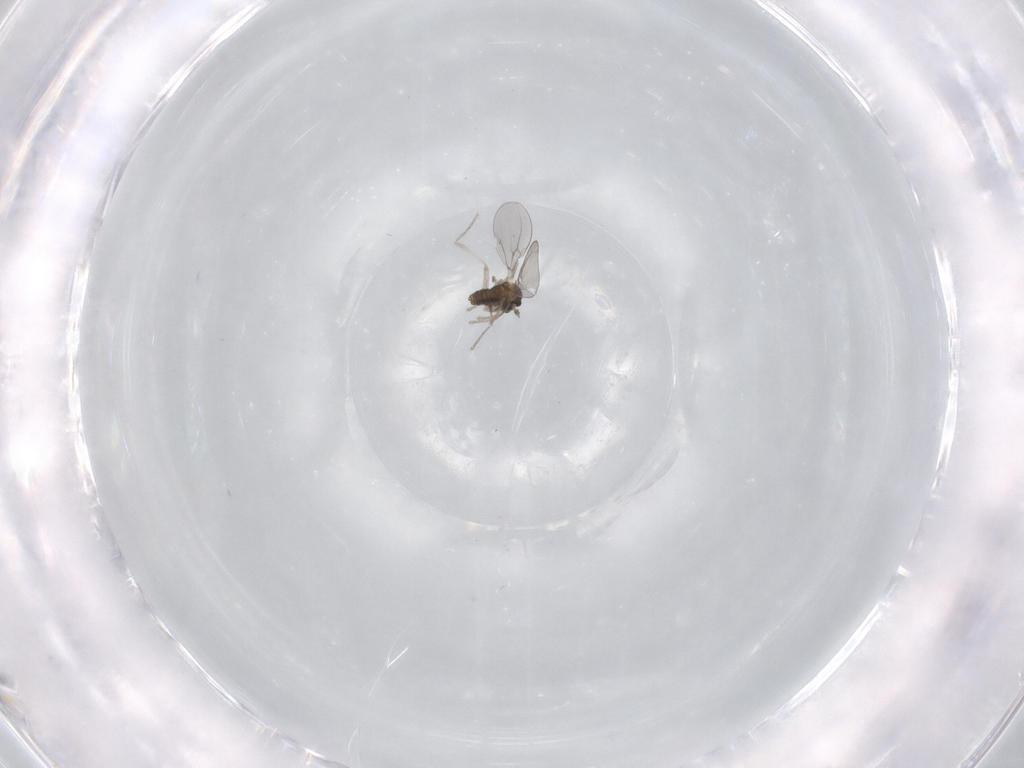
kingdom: Animalia
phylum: Arthropoda
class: Insecta
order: Diptera
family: Cecidomyiidae
